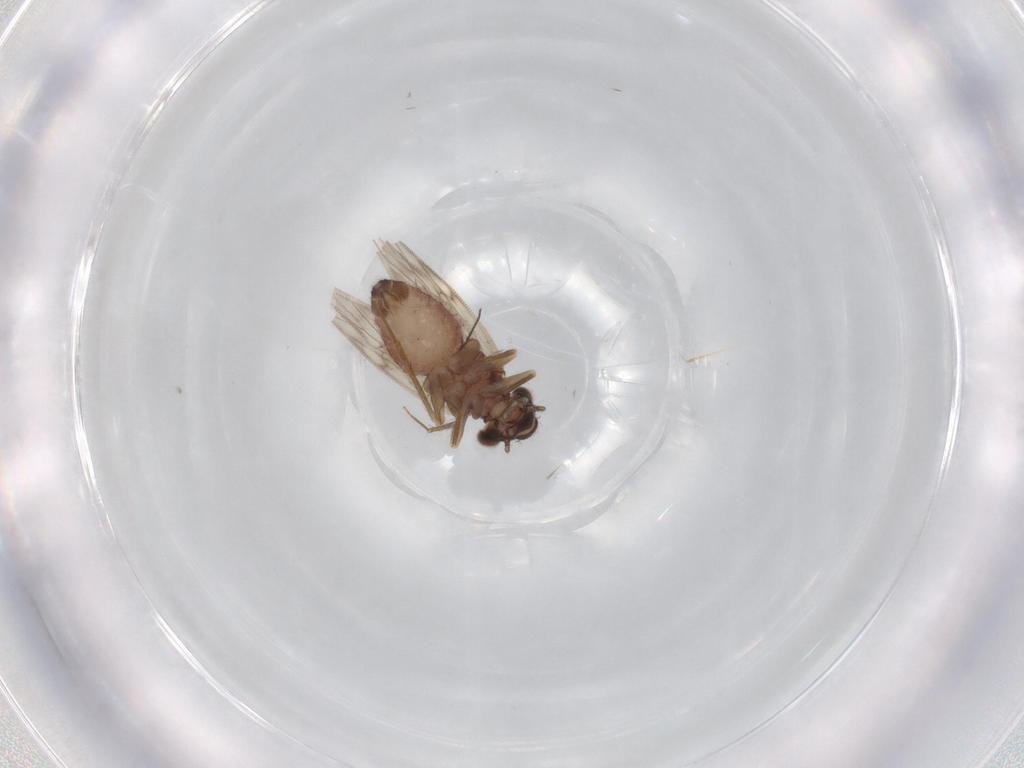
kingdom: Animalia
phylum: Arthropoda
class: Insecta
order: Psocodea
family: Lepidopsocidae
